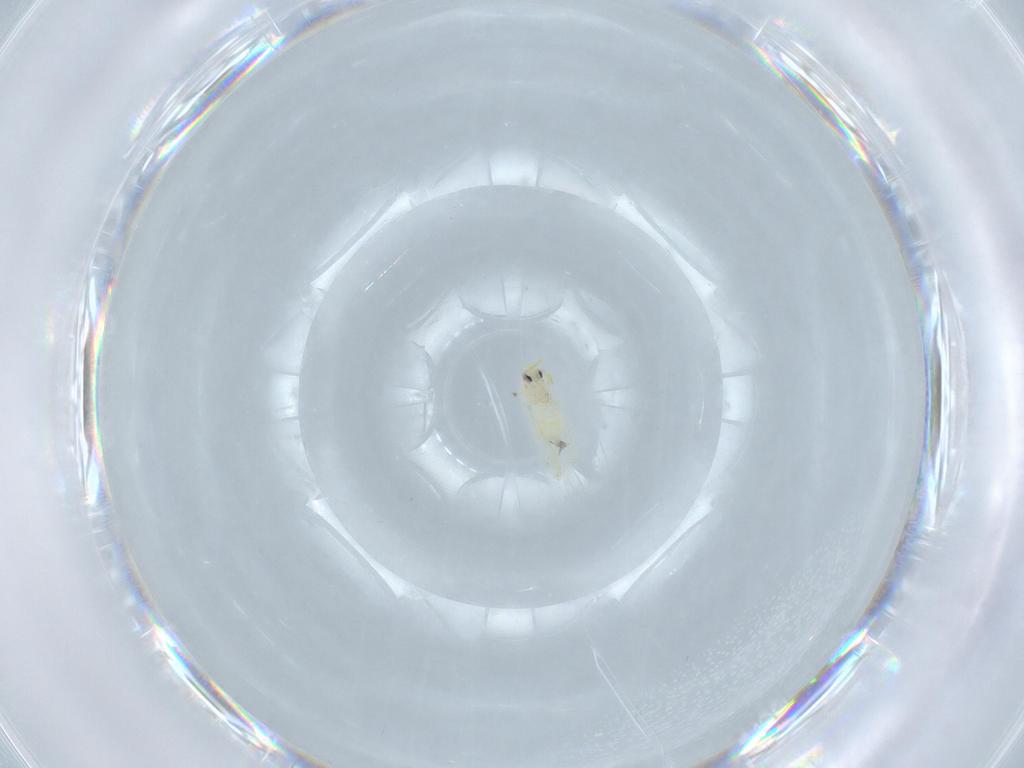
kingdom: Animalia
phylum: Arthropoda
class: Insecta
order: Hemiptera
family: Aleyrodidae
